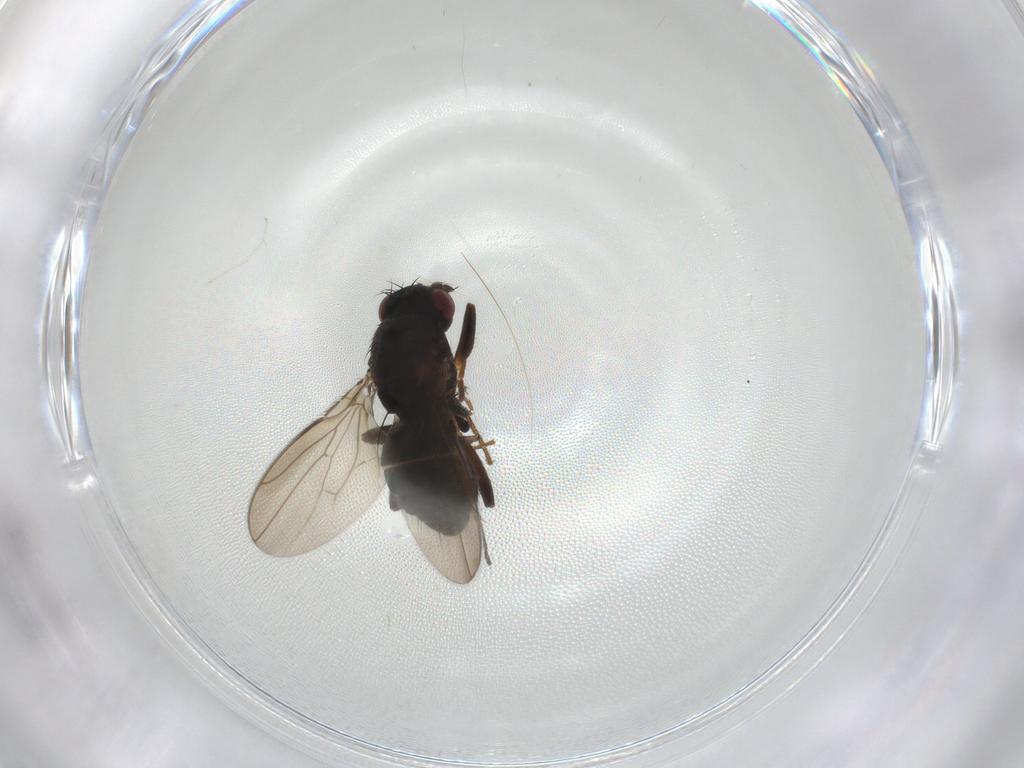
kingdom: Animalia
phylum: Arthropoda
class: Insecta
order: Diptera
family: Sphaeroceridae
